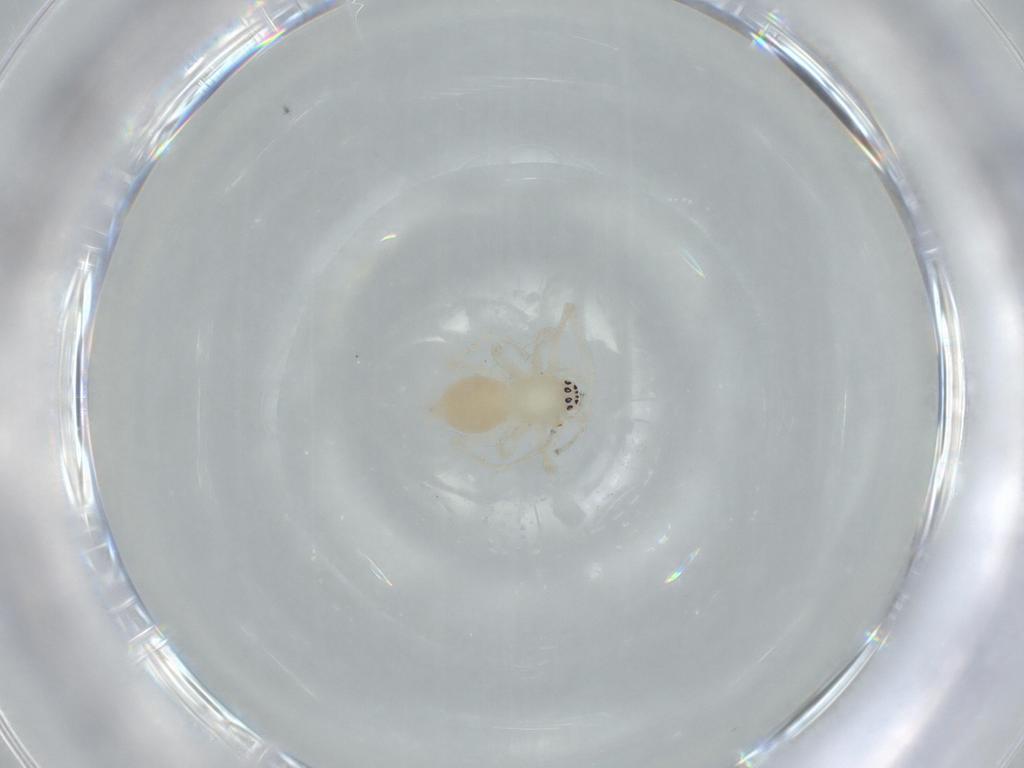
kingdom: Animalia
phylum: Arthropoda
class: Arachnida
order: Araneae
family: Anyphaenidae
